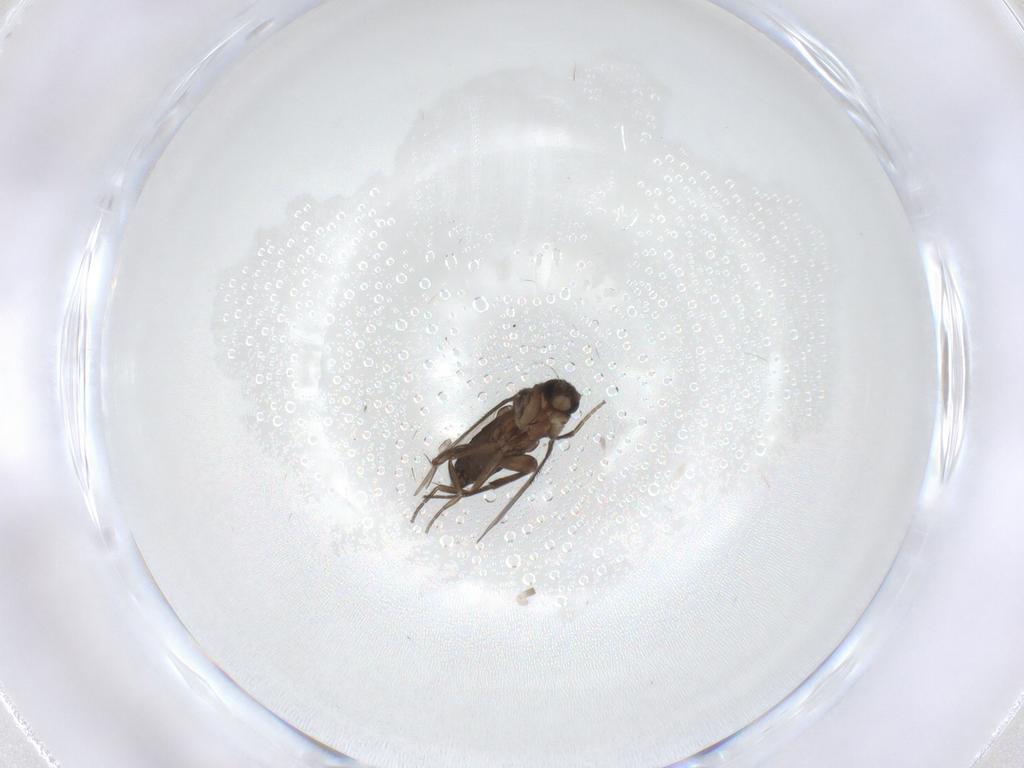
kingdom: Animalia
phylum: Arthropoda
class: Insecta
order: Diptera
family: Phoridae
